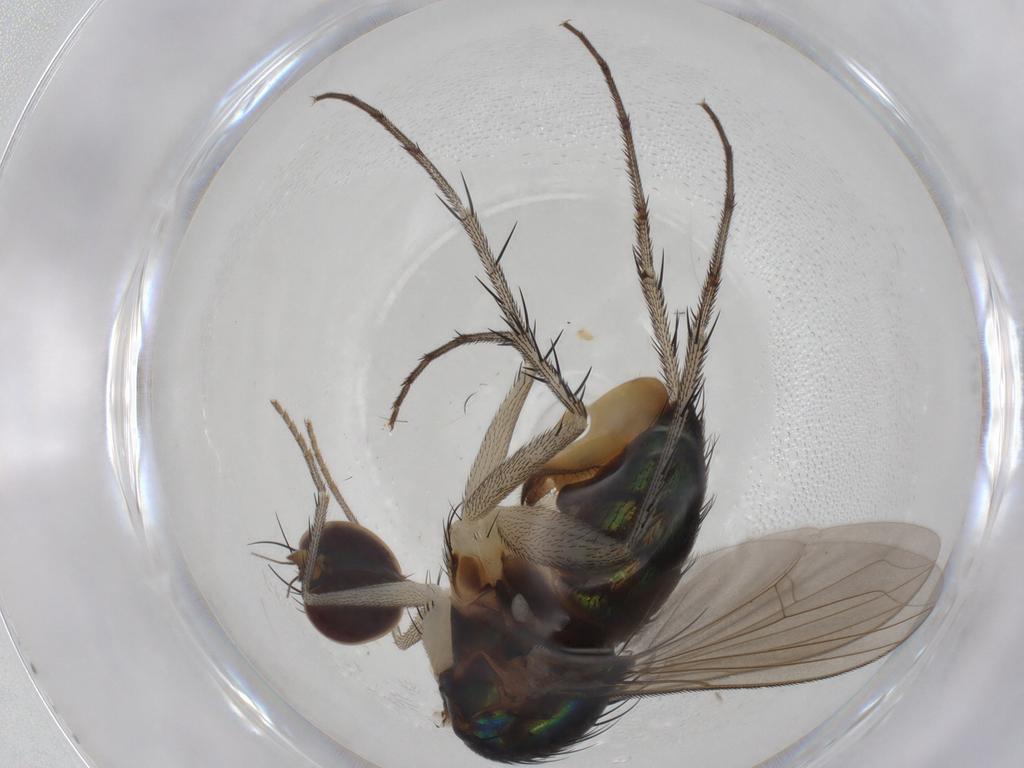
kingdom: Animalia
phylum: Arthropoda
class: Insecta
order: Diptera
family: Dolichopodidae
